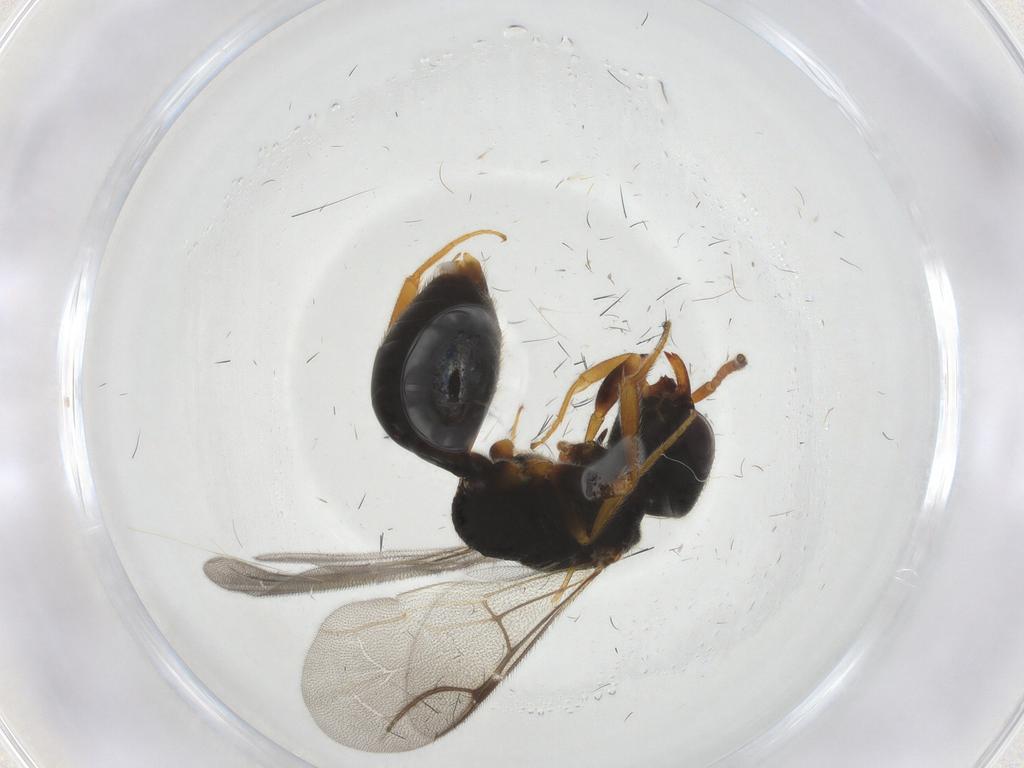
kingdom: Animalia
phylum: Arthropoda
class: Insecta
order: Hymenoptera
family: Bethylidae
